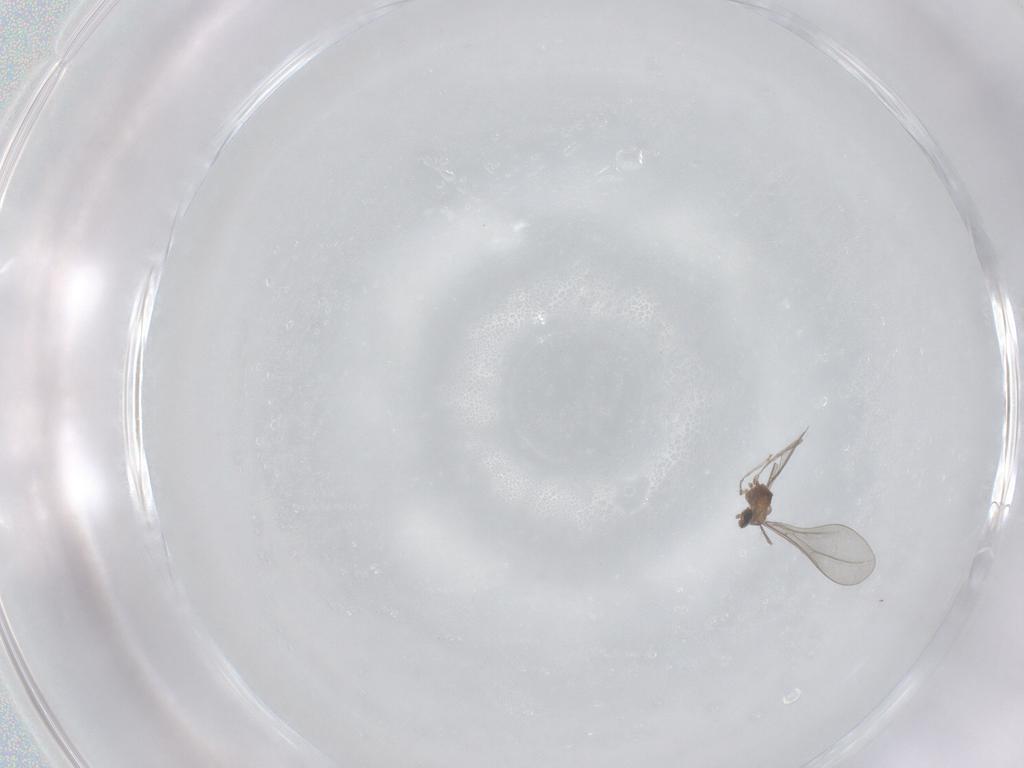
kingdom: Animalia
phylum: Arthropoda
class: Insecta
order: Diptera
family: Cecidomyiidae
